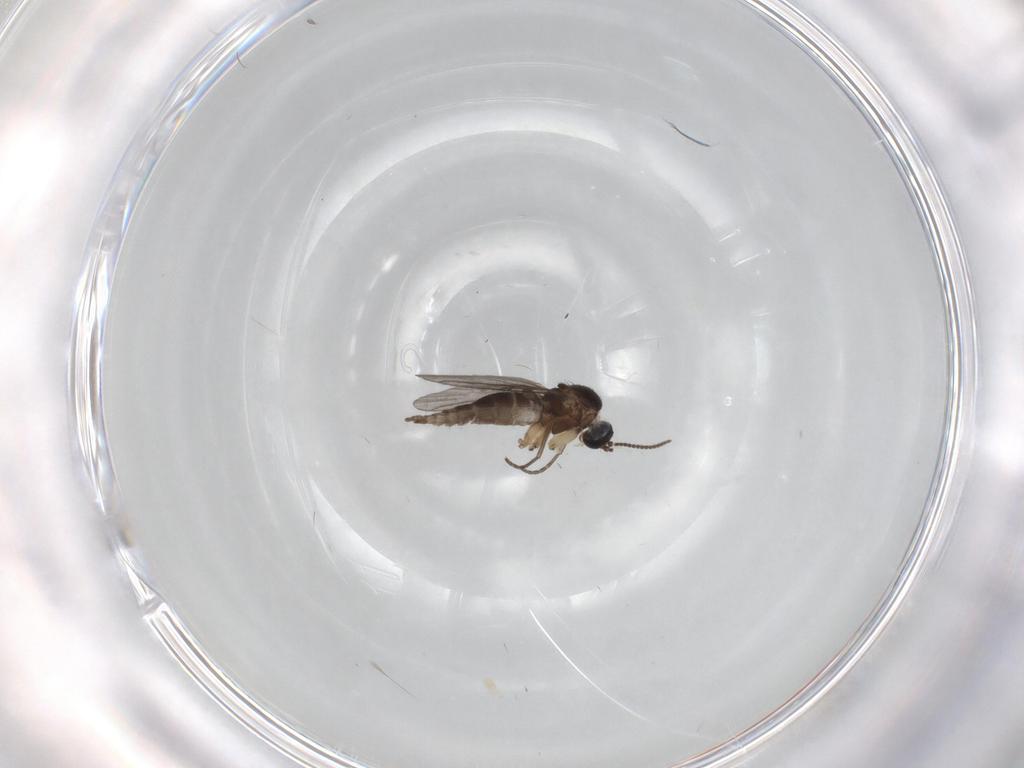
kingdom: Animalia
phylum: Arthropoda
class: Insecta
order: Diptera
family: Sciaridae
